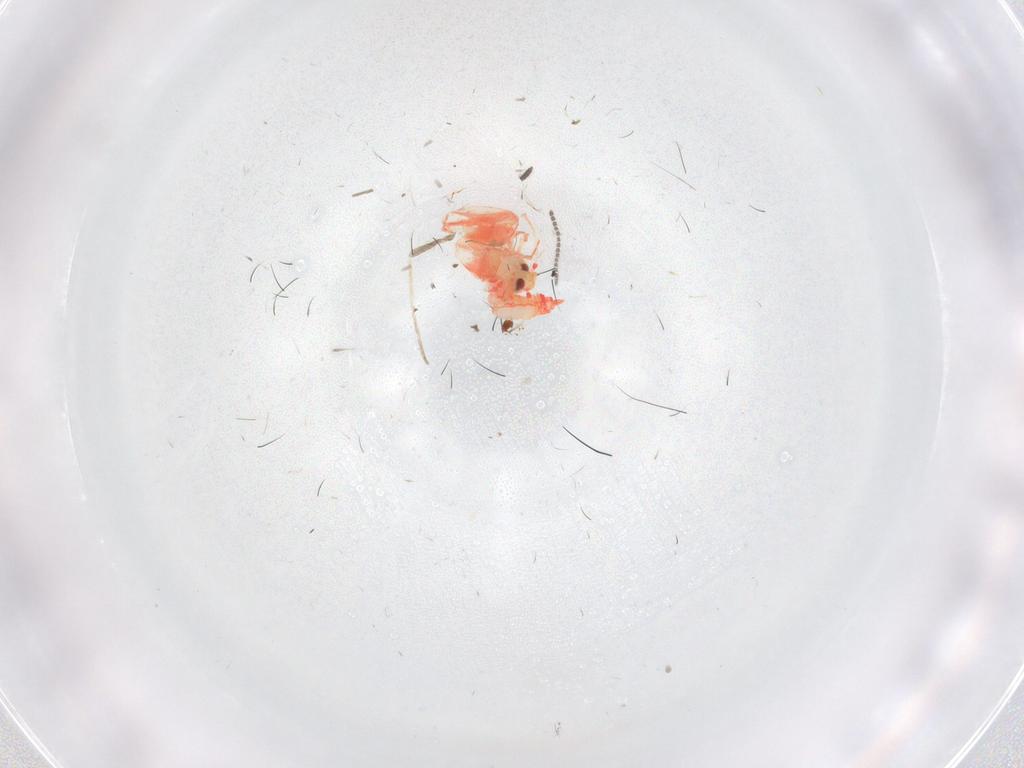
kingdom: Animalia
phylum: Arthropoda
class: Insecta
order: Hemiptera
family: Aleyrodidae
